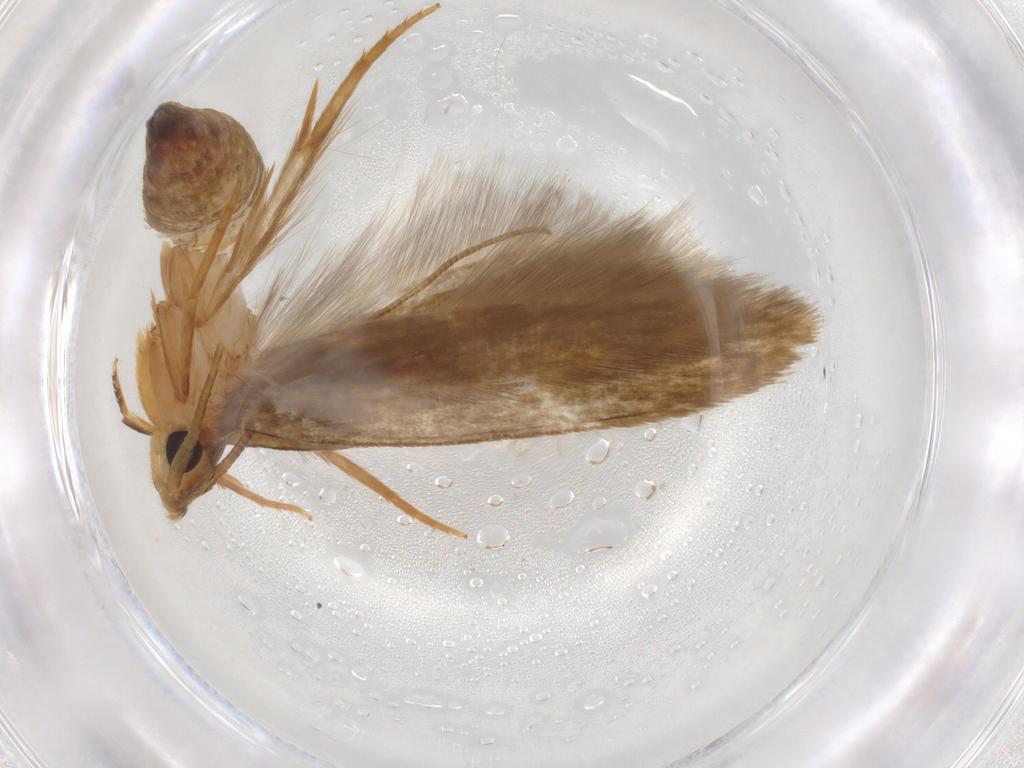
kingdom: Animalia
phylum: Arthropoda
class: Insecta
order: Lepidoptera
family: Tineidae
